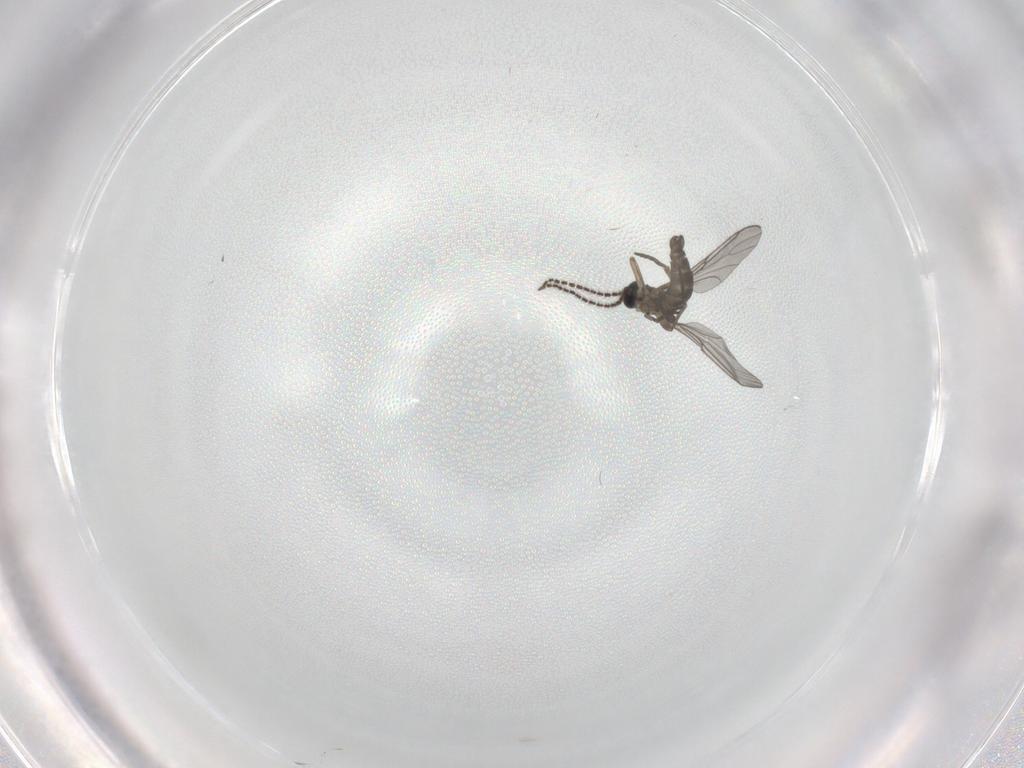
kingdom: Animalia
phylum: Arthropoda
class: Insecta
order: Diptera
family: Sciaridae
